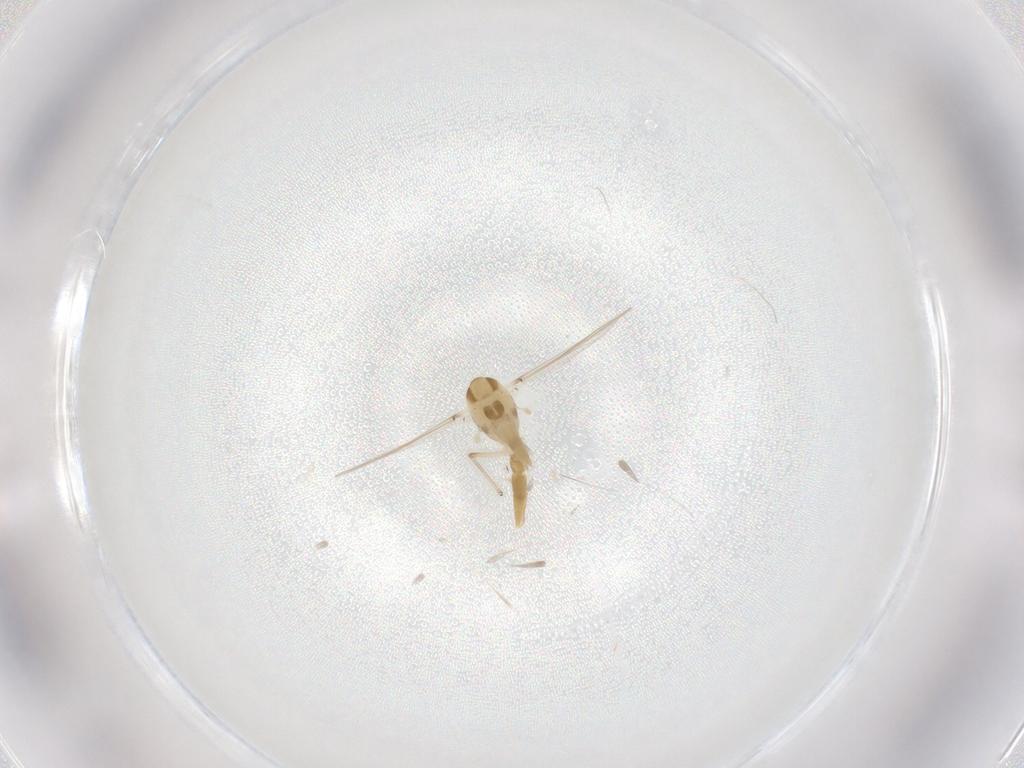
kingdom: Animalia
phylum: Arthropoda
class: Insecta
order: Diptera
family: Chironomidae
